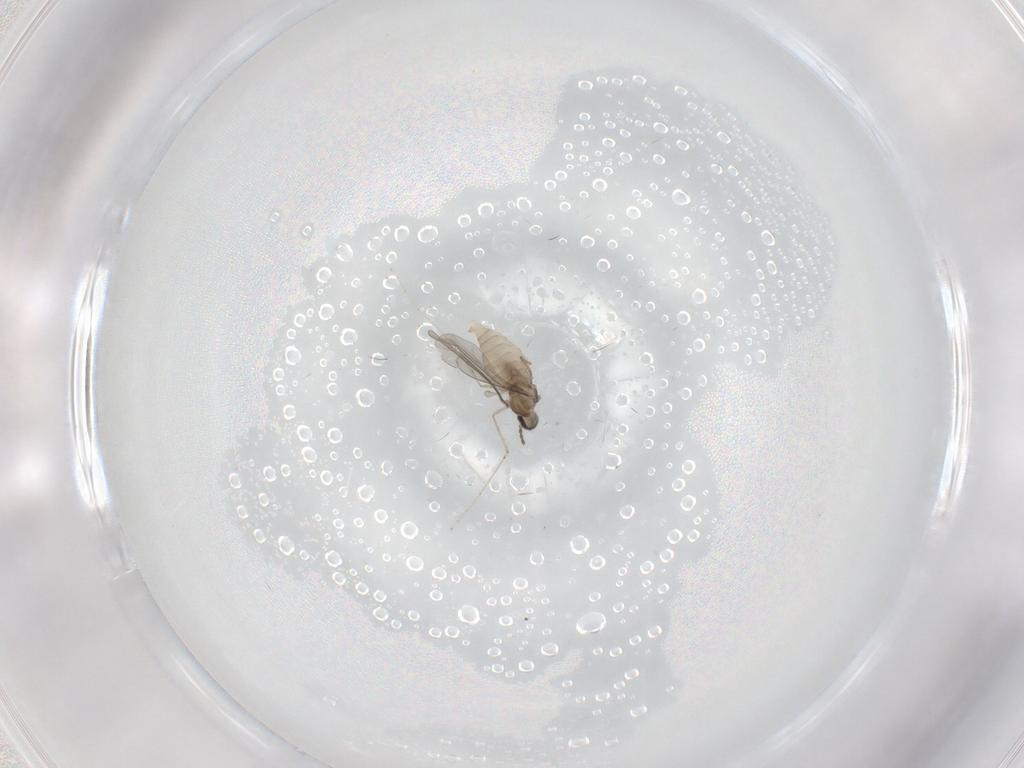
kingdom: Animalia
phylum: Arthropoda
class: Insecta
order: Diptera
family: Cecidomyiidae
